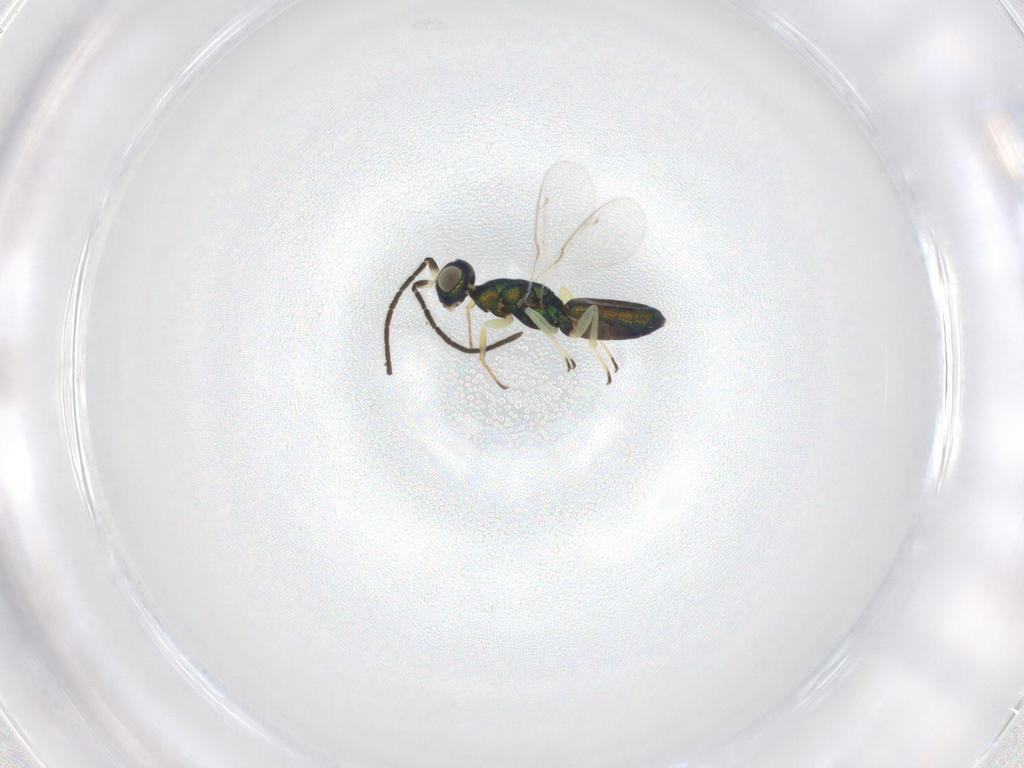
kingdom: Animalia
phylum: Arthropoda
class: Insecta
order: Hymenoptera
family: Pteromalidae
